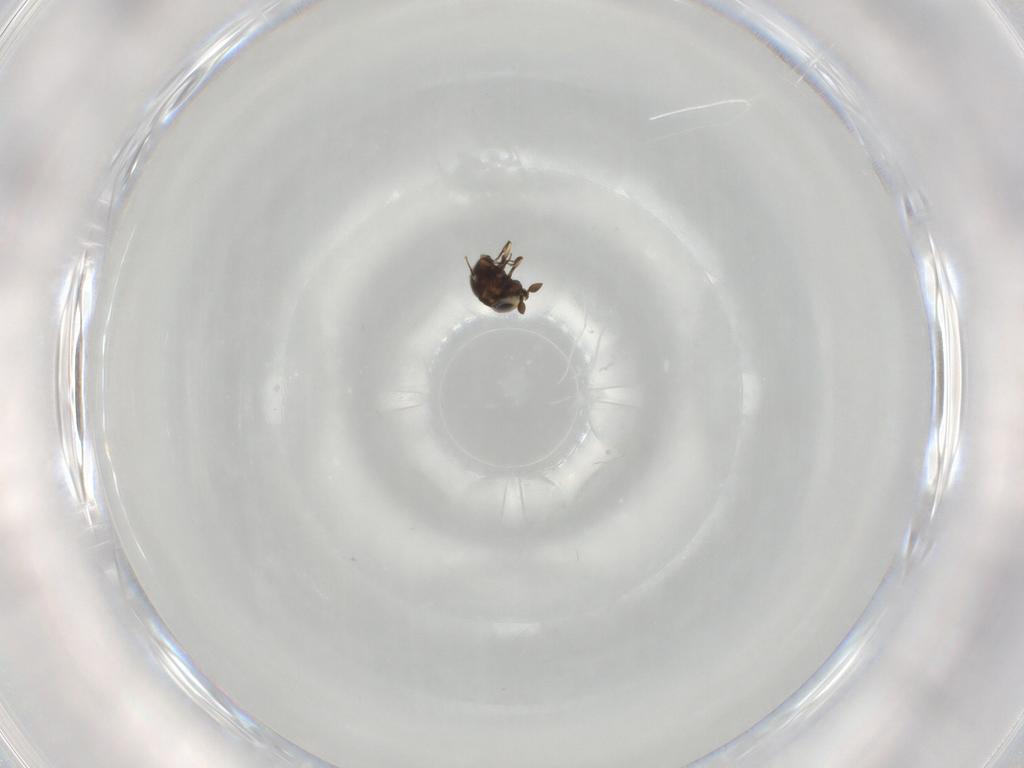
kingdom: Animalia
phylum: Arthropoda
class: Insecta
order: Hymenoptera
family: Scelionidae
